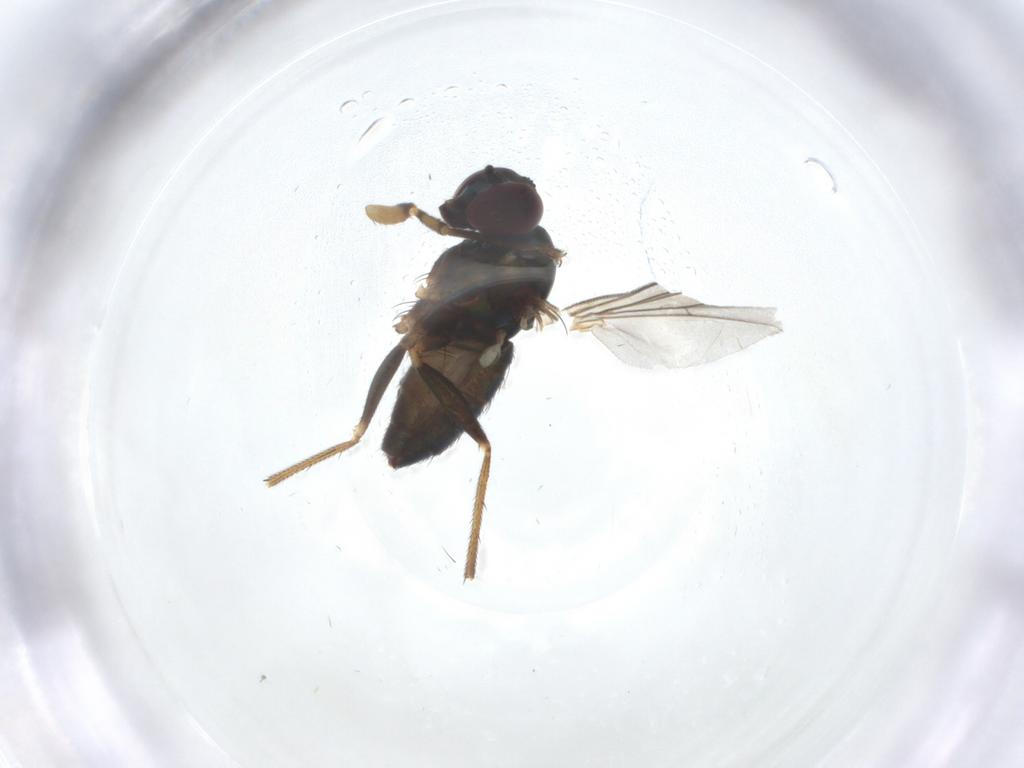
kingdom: Animalia
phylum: Arthropoda
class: Insecta
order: Diptera
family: Dolichopodidae
